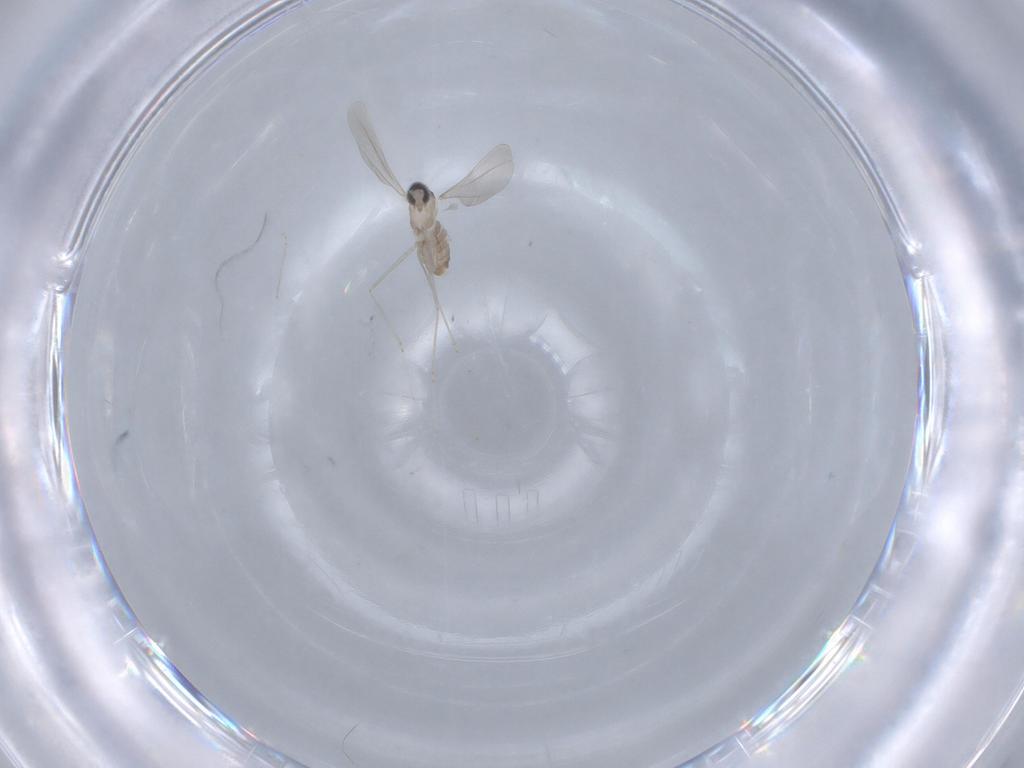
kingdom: Animalia
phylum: Arthropoda
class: Insecta
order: Diptera
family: Cecidomyiidae
